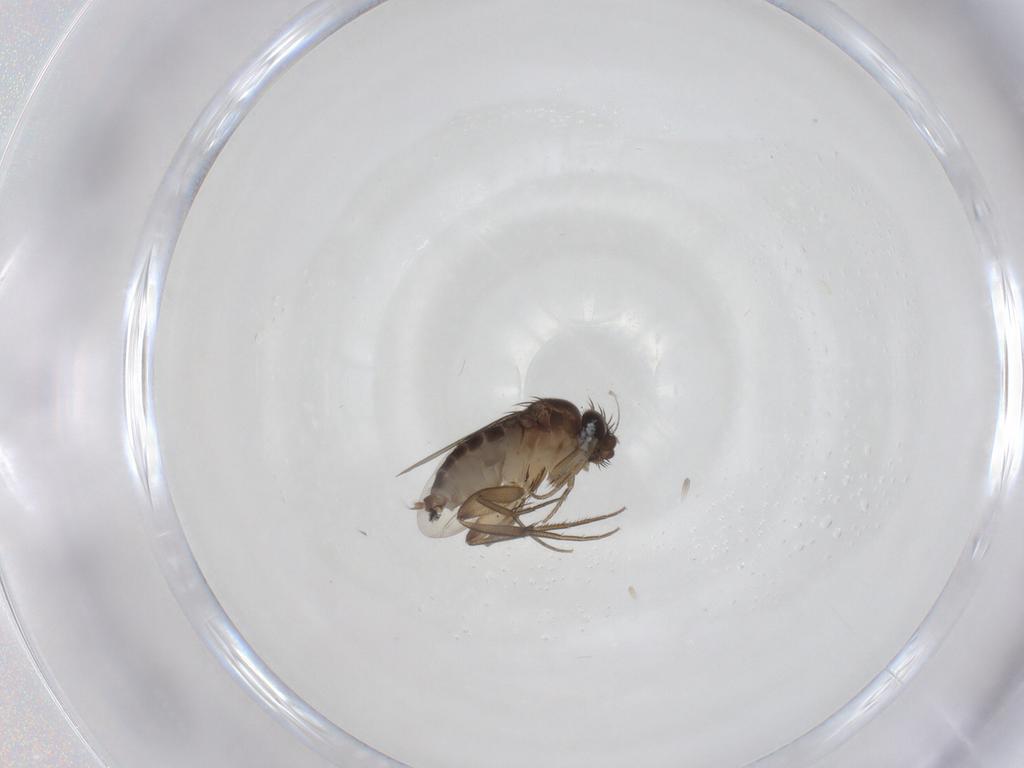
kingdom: Animalia
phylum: Arthropoda
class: Insecta
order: Diptera
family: Phoridae
